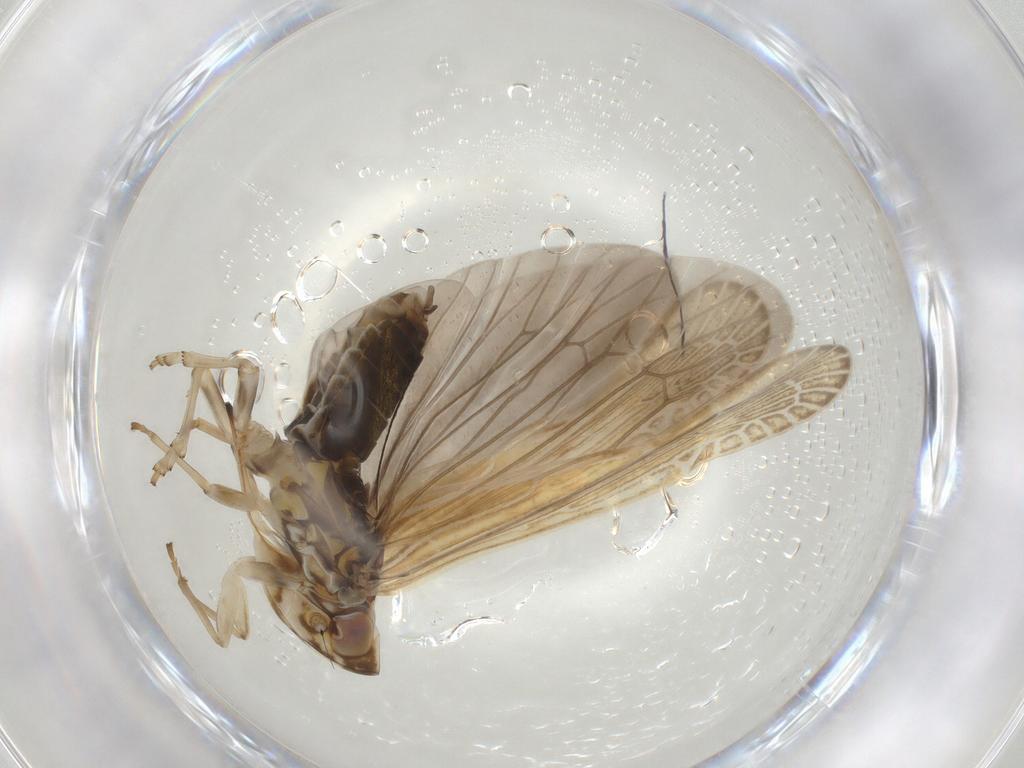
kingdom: Animalia
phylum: Arthropoda
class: Insecta
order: Hemiptera
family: Achilidae
